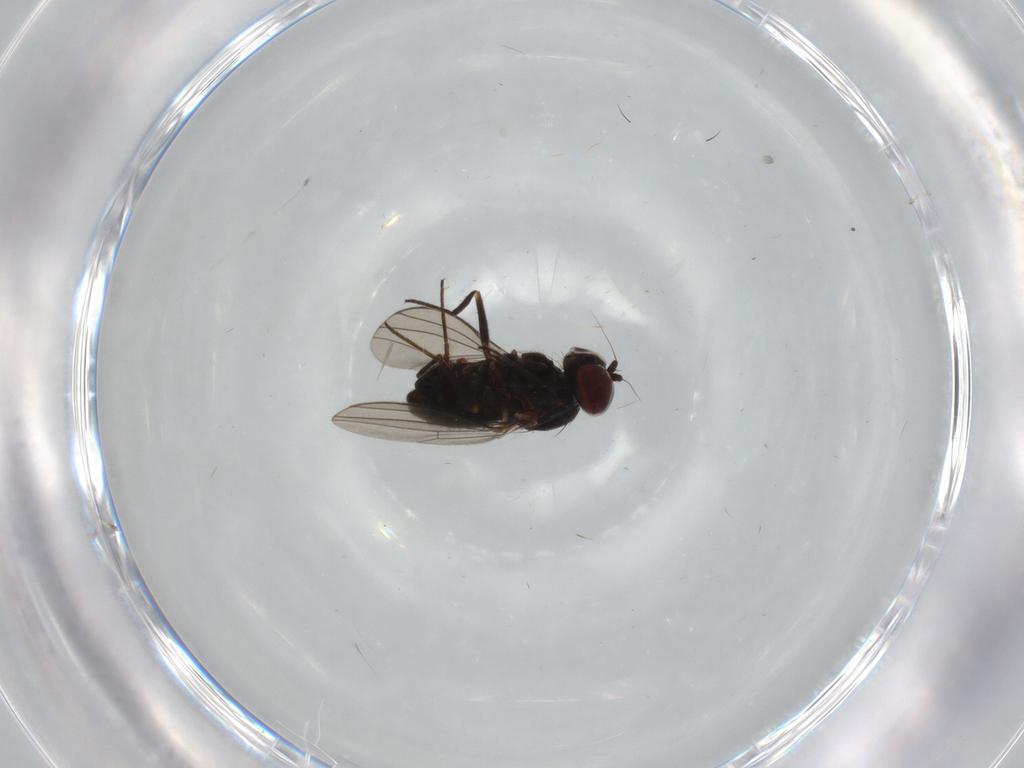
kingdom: Animalia
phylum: Arthropoda
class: Insecta
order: Diptera
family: Dolichopodidae
